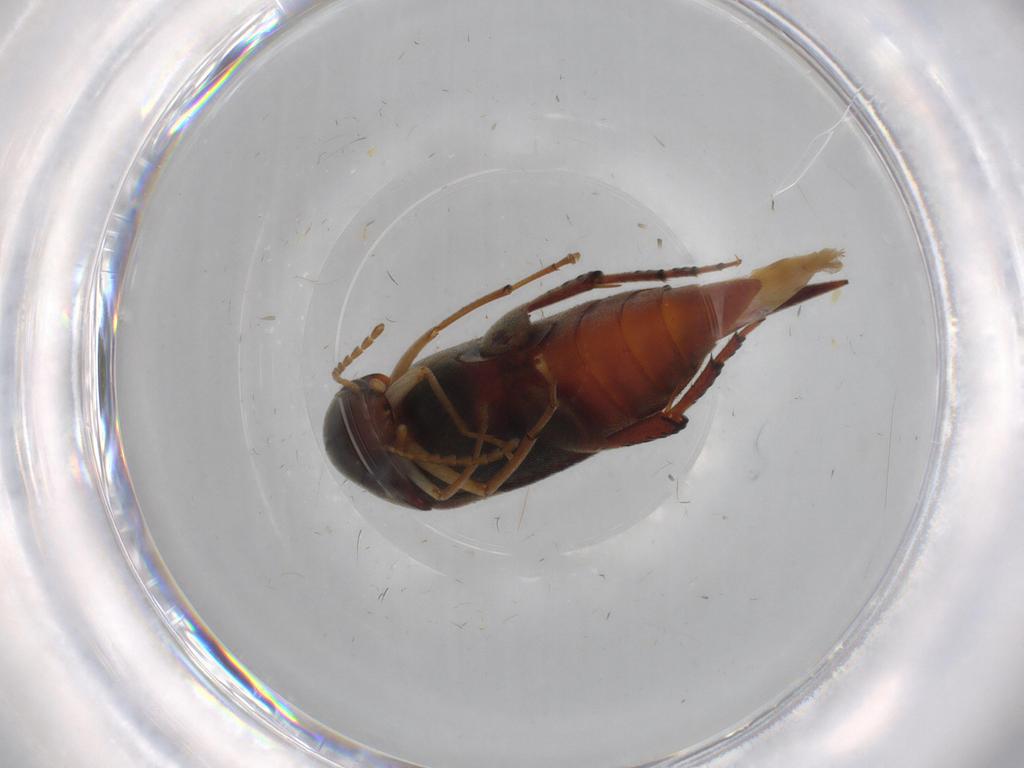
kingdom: Animalia
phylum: Arthropoda
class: Insecta
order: Coleoptera
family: Mordellidae
